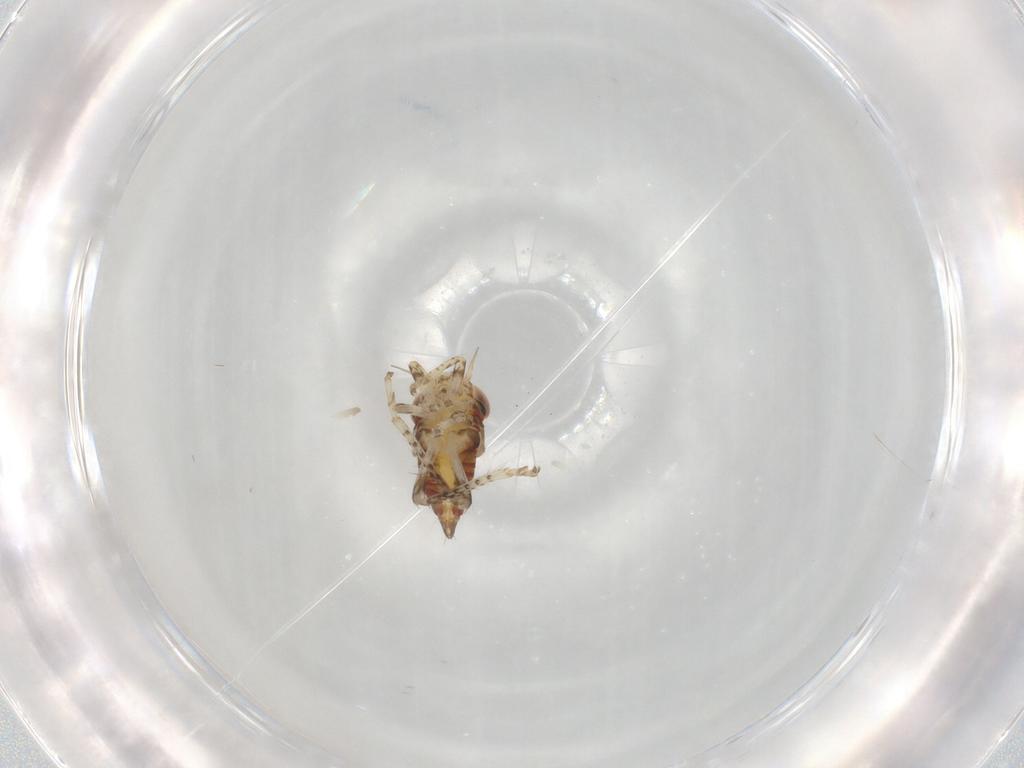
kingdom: Animalia
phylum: Arthropoda
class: Insecta
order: Hemiptera
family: Cicadellidae
